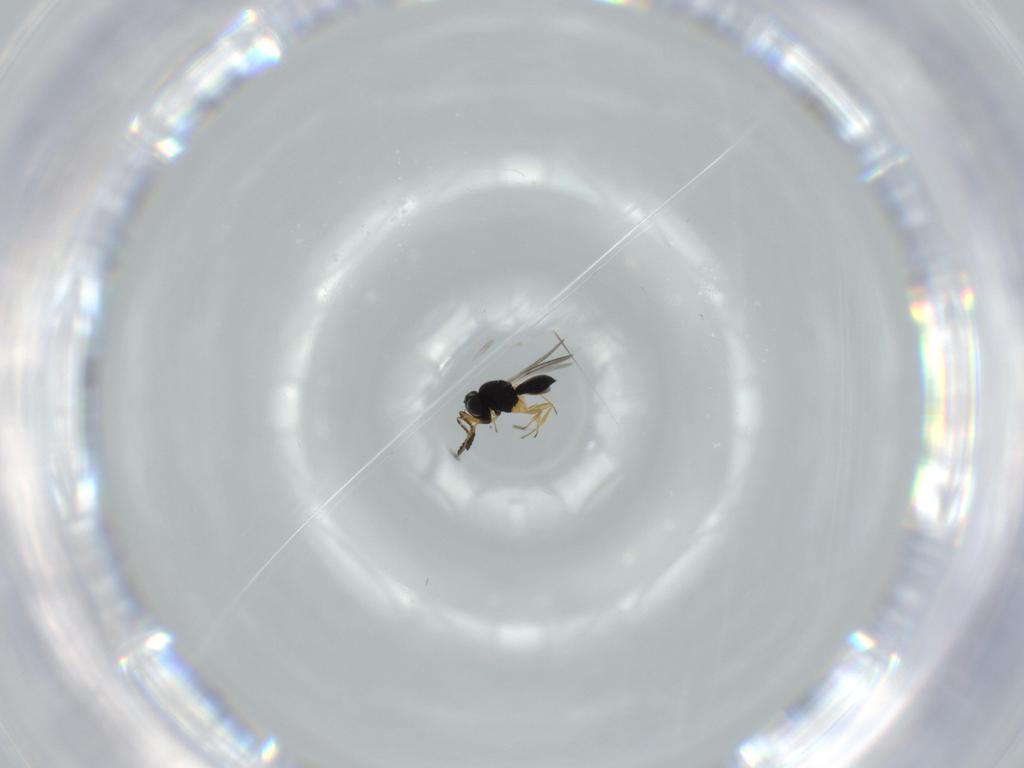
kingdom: Animalia
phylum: Arthropoda
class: Insecta
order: Hymenoptera
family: Scelionidae
